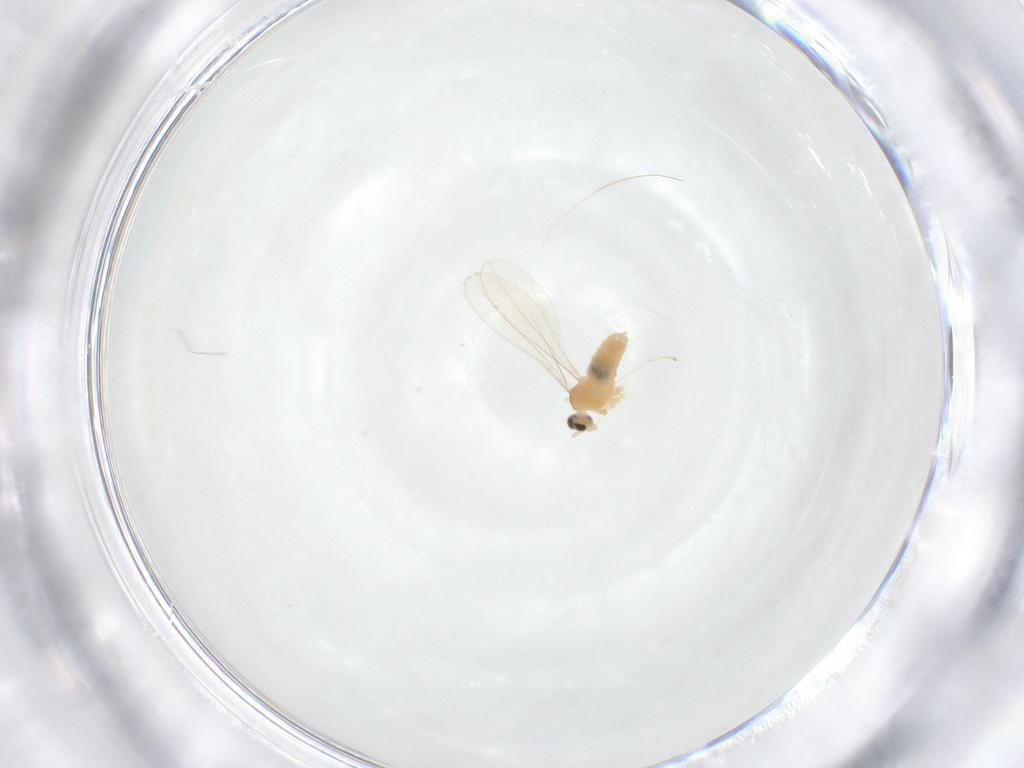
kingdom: Animalia
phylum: Arthropoda
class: Insecta
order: Diptera
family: Cecidomyiidae
